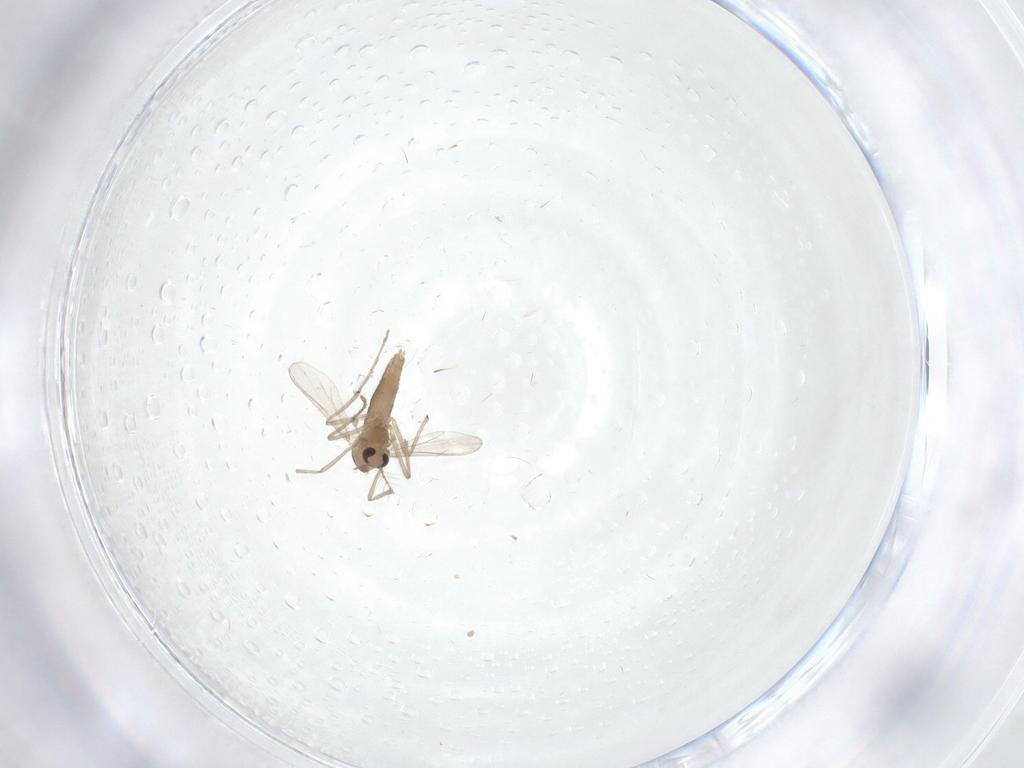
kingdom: Animalia
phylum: Arthropoda
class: Insecta
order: Diptera
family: Chironomidae
